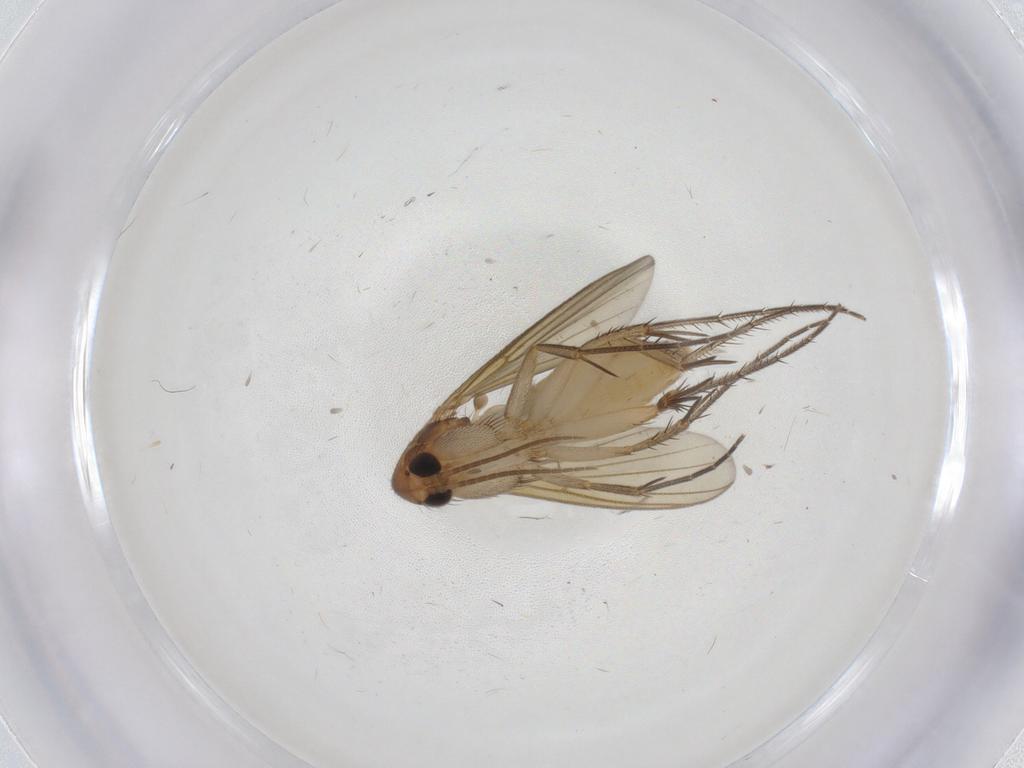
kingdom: Animalia
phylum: Arthropoda
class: Insecta
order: Diptera
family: Mycetophilidae
